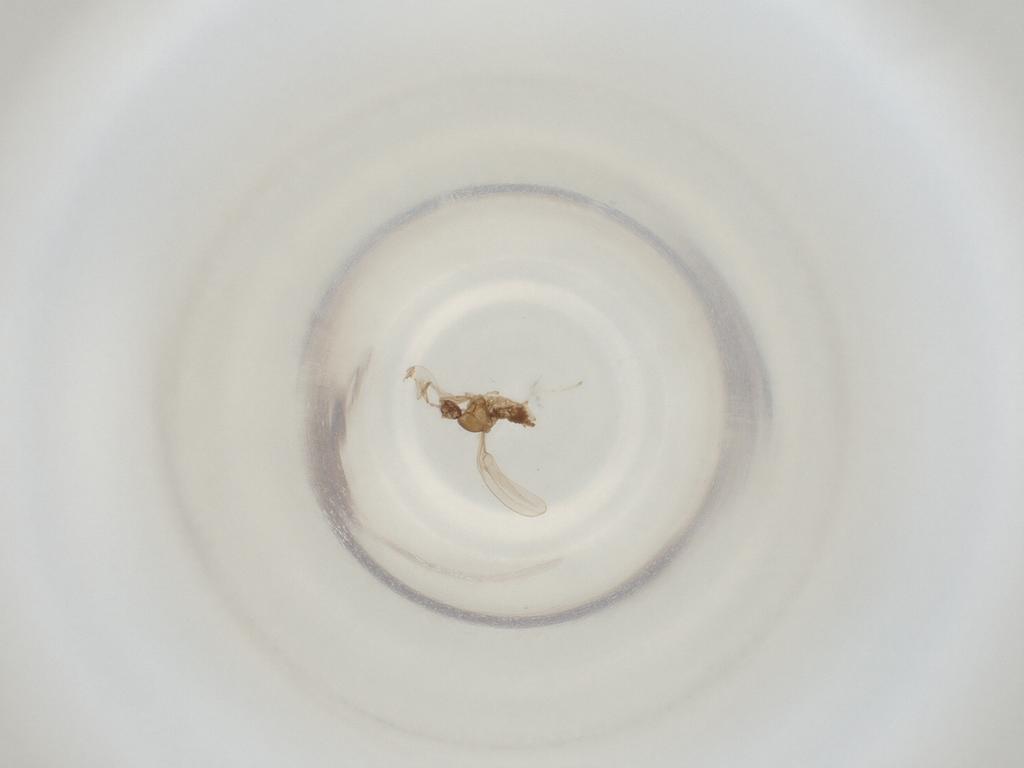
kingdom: Animalia
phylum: Arthropoda
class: Insecta
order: Diptera
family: Cecidomyiidae
